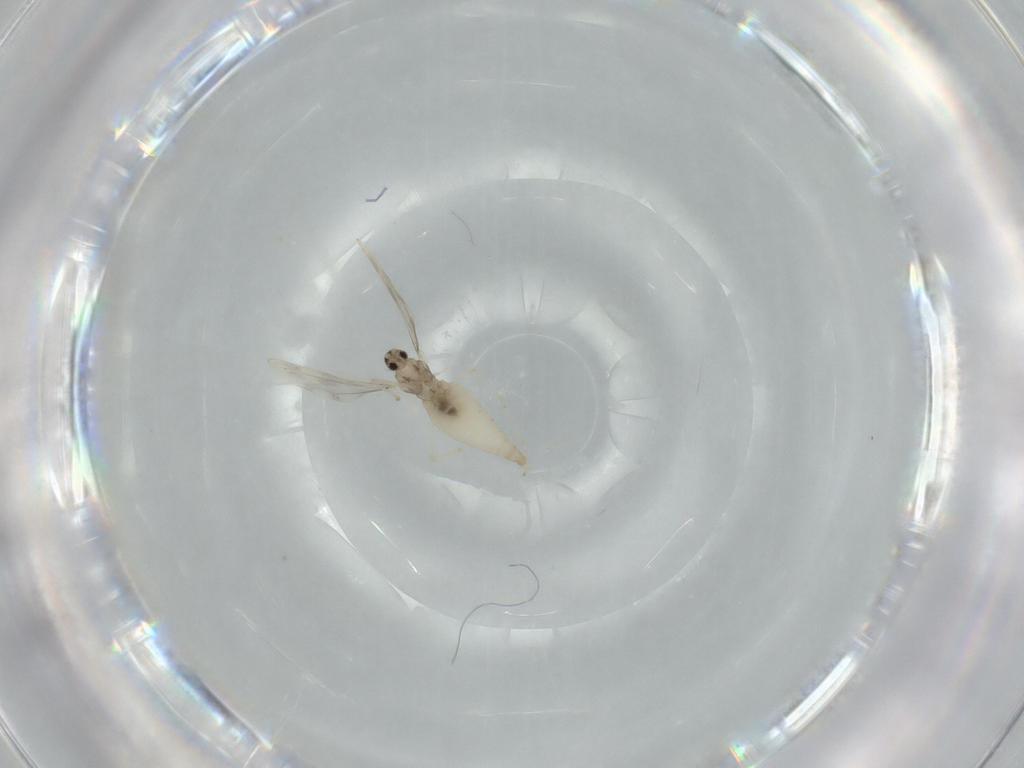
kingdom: Animalia
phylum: Arthropoda
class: Insecta
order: Diptera
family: Cecidomyiidae
